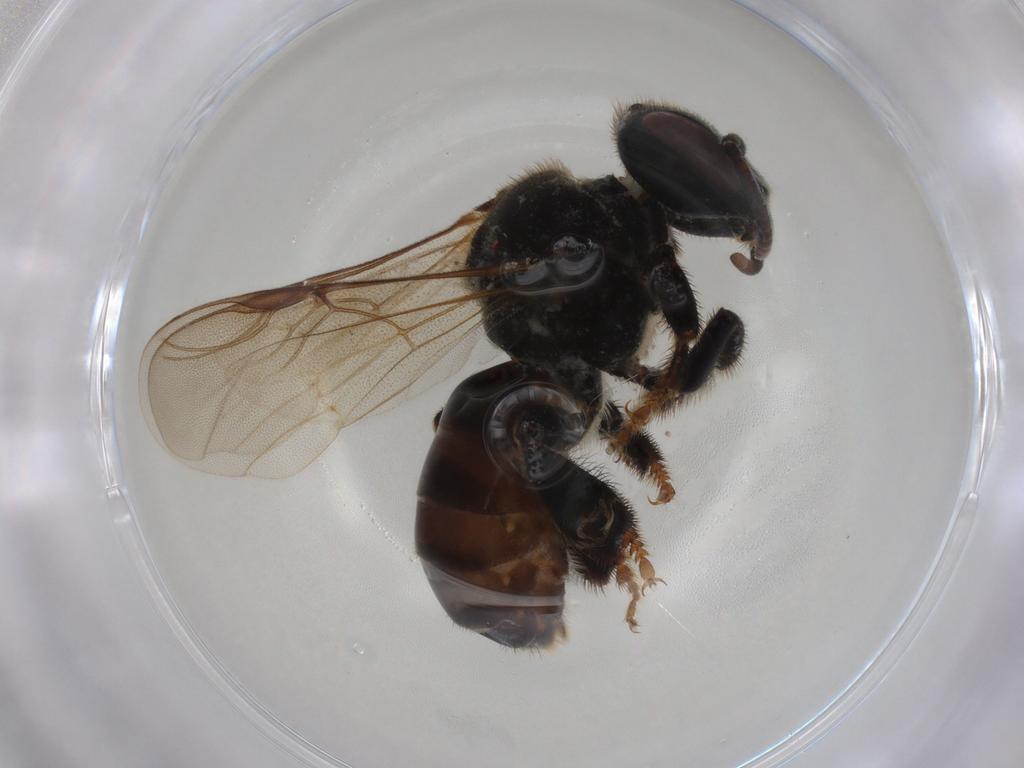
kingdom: Animalia
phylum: Arthropoda
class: Insecta
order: Hymenoptera
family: Apidae
